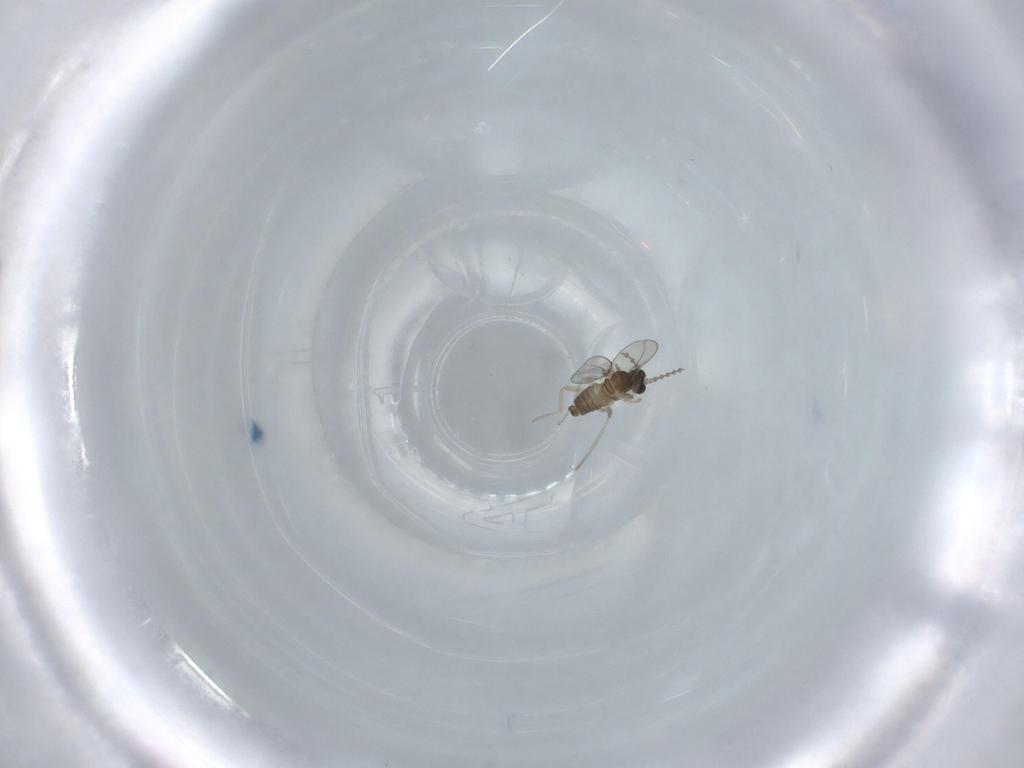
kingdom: Animalia
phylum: Arthropoda
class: Insecta
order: Diptera
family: Cecidomyiidae
